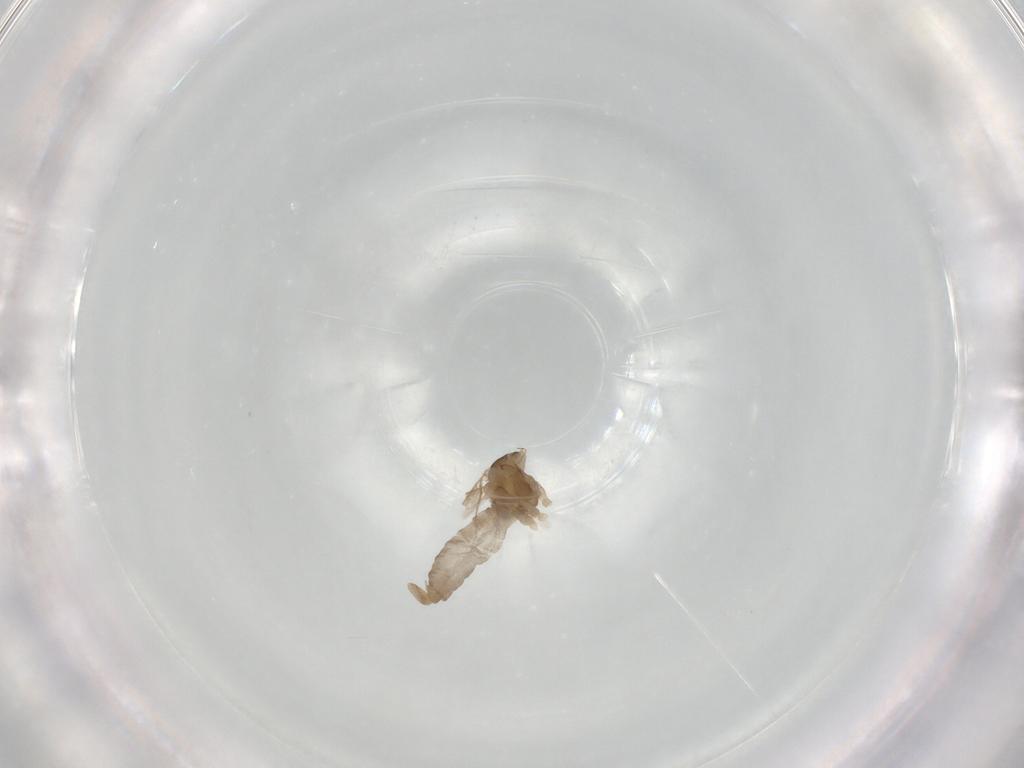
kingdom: Animalia
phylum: Arthropoda
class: Insecta
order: Diptera
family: Cecidomyiidae
